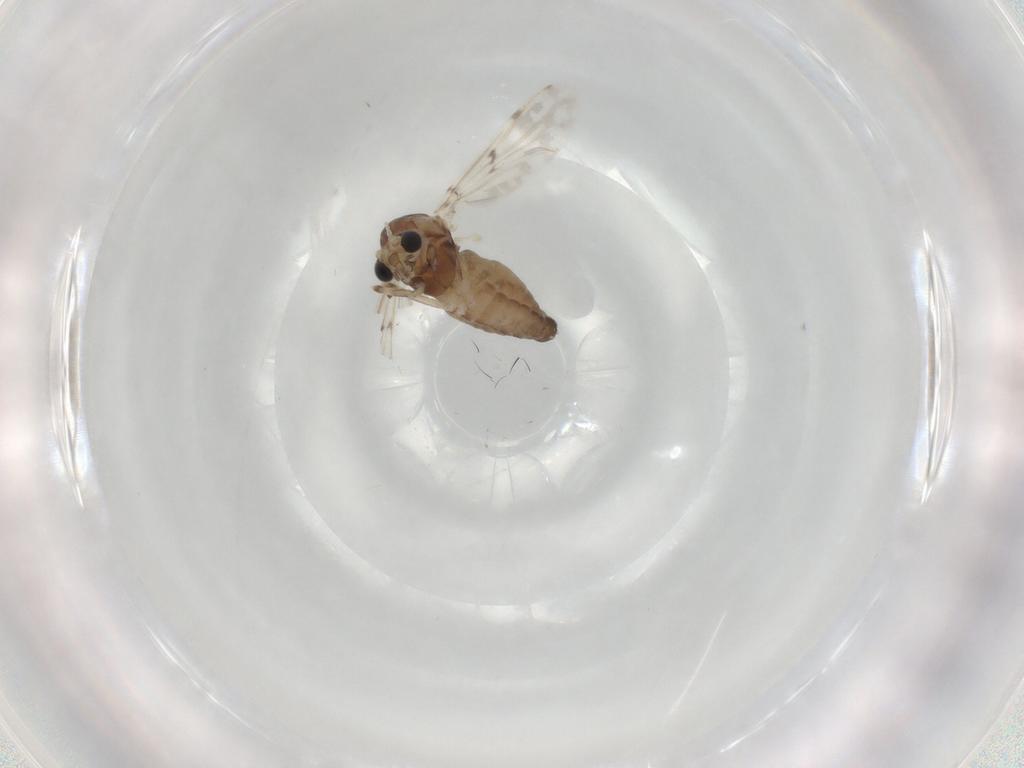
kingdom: Animalia
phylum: Arthropoda
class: Insecta
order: Diptera
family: Chironomidae
